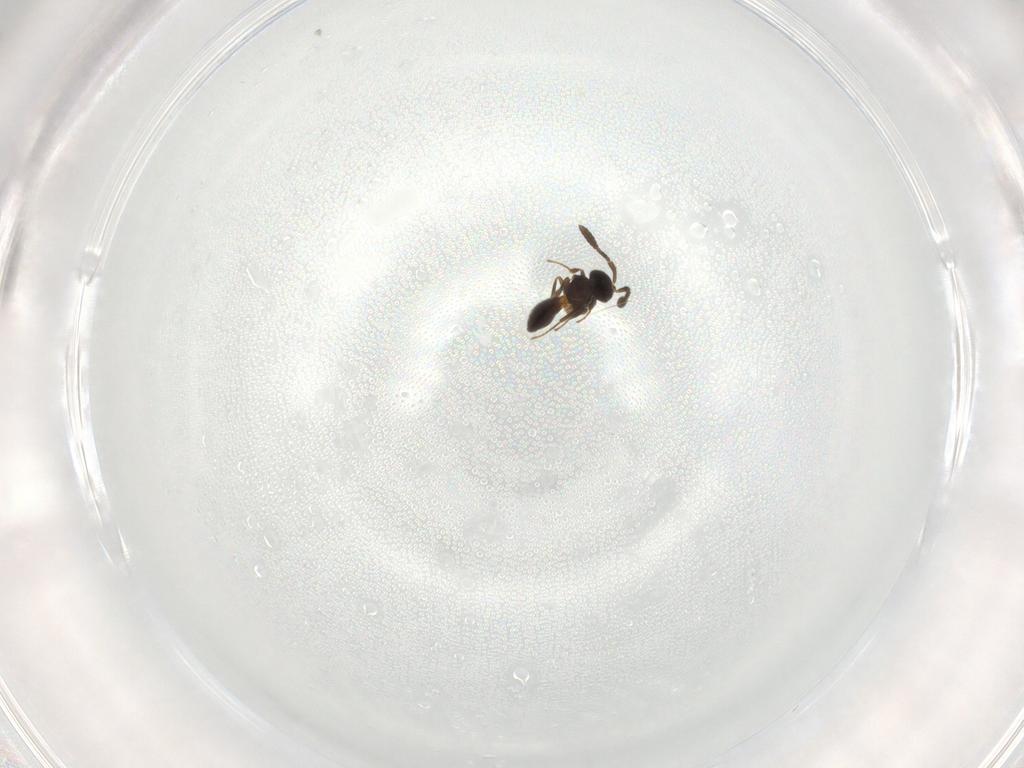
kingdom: Animalia
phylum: Arthropoda
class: Insecta
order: Hymenoptera
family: Scelionidae
